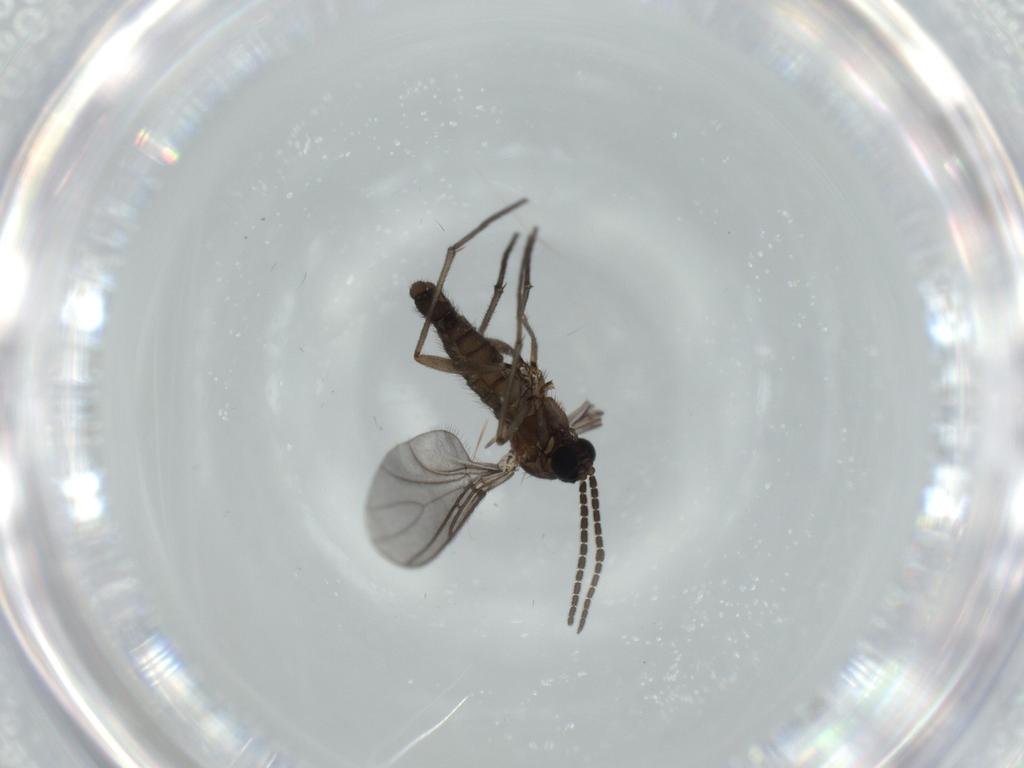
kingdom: Animalia
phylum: Arthropoda
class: Insecta
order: Diptera
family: Sciaridae
